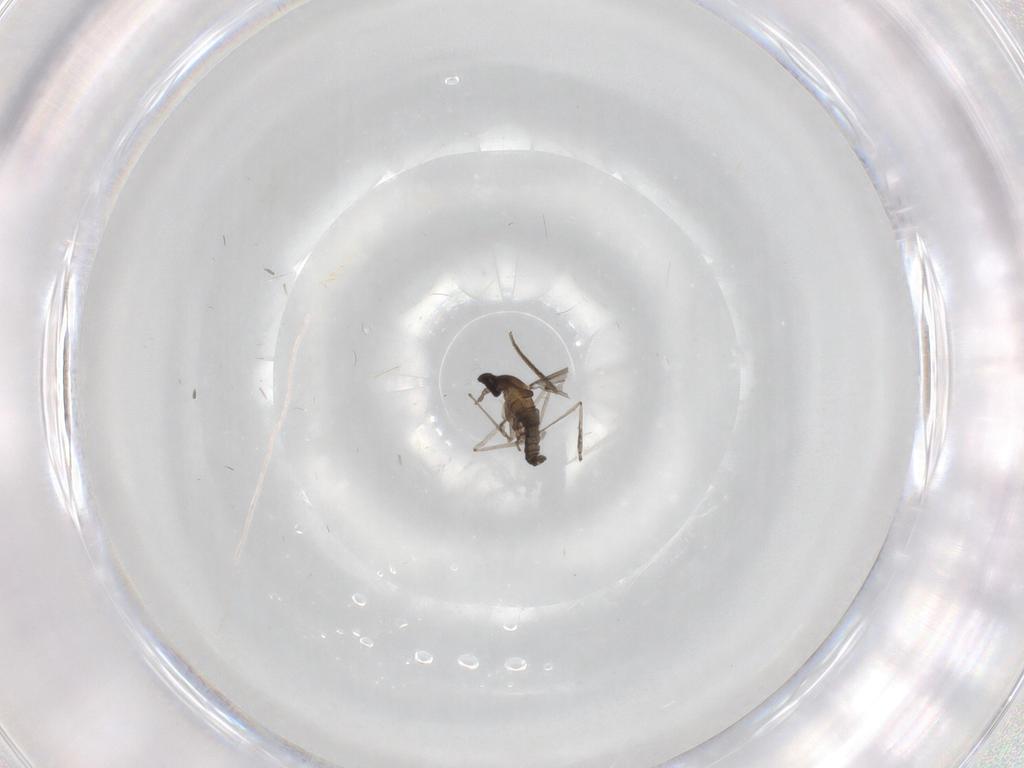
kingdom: Animalia
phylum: Arthropoda
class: Insecta
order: Diptera
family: Cecidomyiidae
